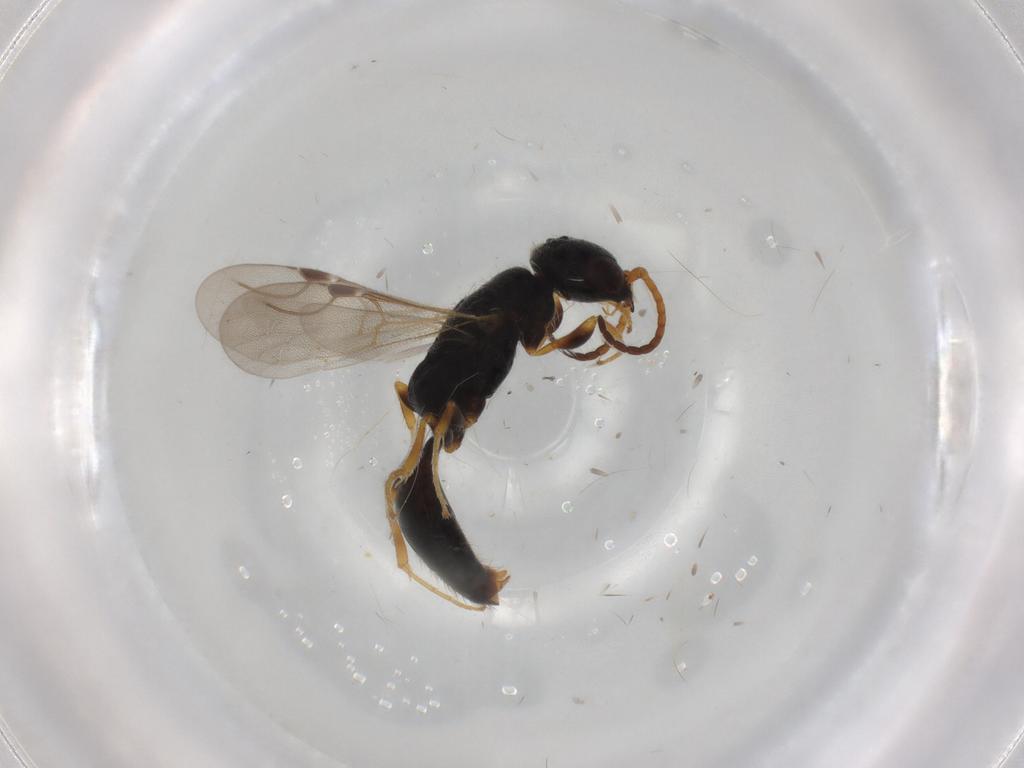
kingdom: Animalia
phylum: Arthropoda
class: Insecta
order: Hymenoptera
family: Bethylidae
